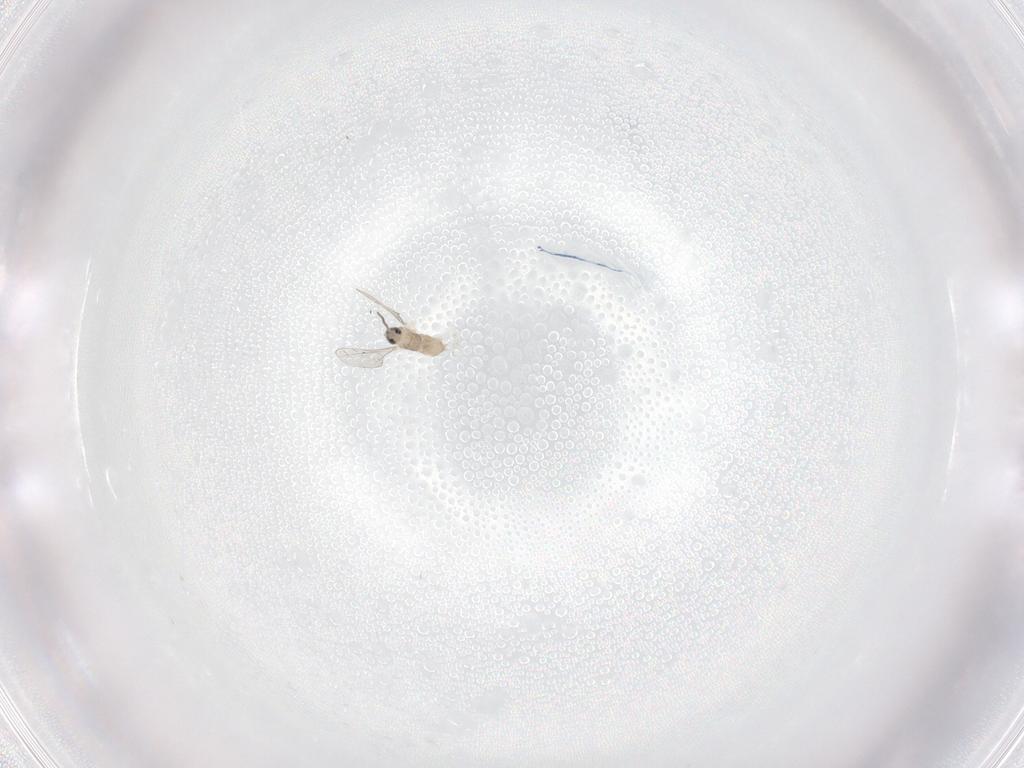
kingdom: Animalia
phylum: Arthropoda
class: Insecta
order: Diptera
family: Cecidomyiidae
